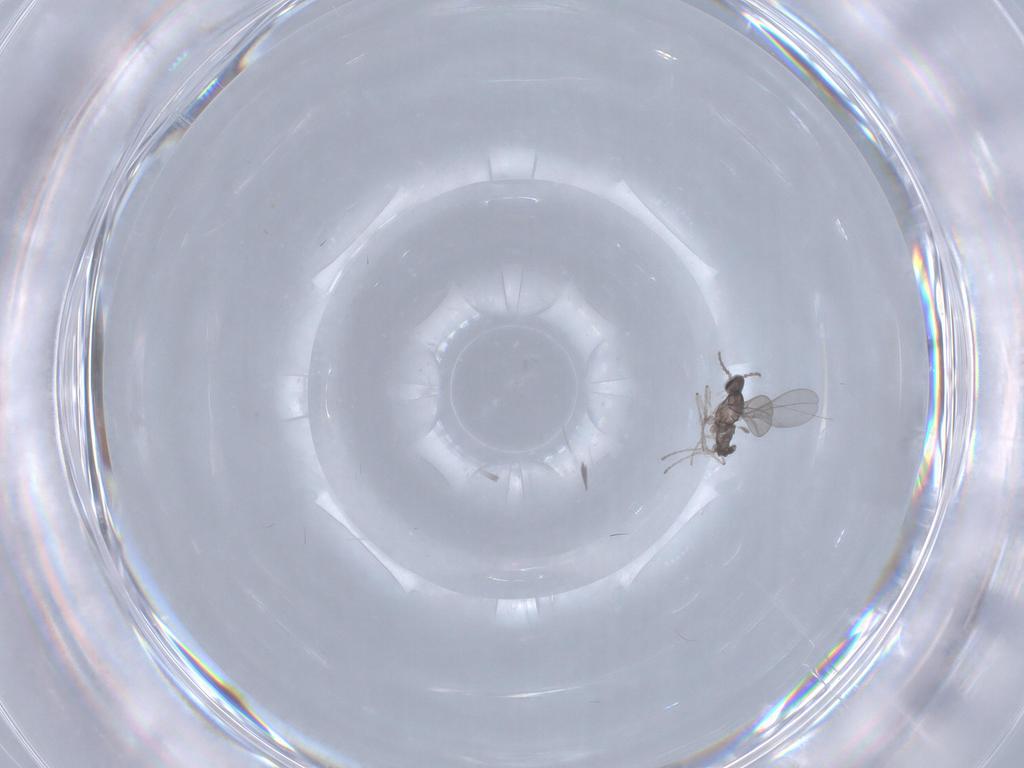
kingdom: Animalia
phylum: Arthropoda
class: Insecta
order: Diptera
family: Cecidomyiidae
